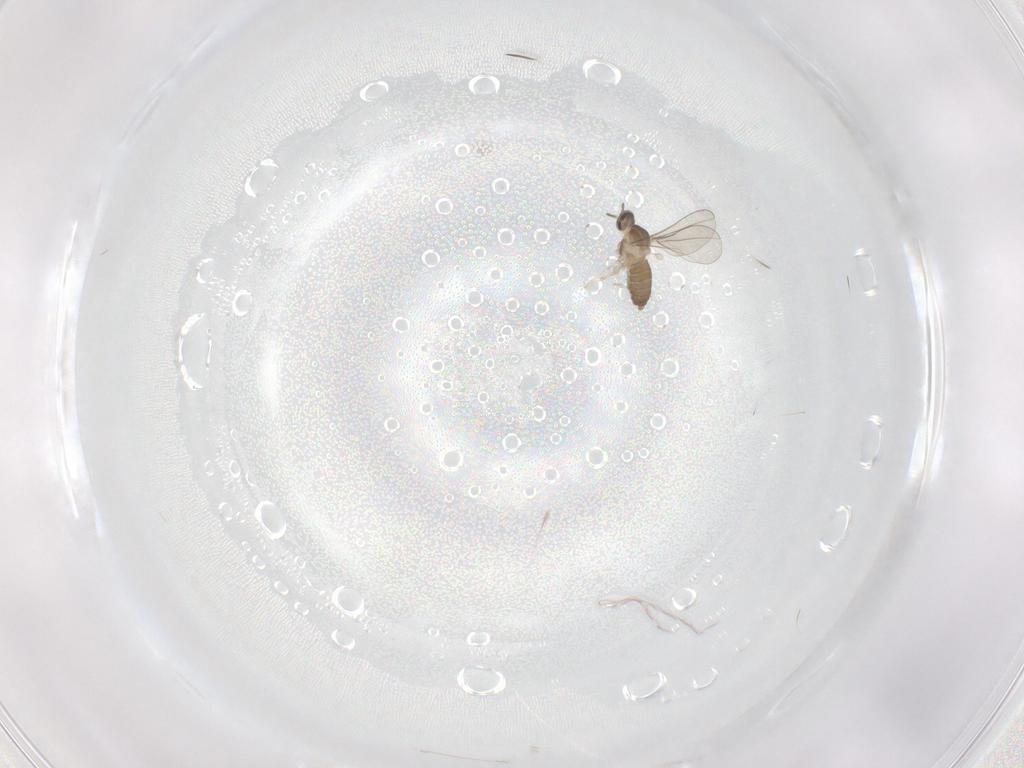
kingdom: Animalia
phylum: Arthropoda
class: Insecta
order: Diptera
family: Cecidomyiidae
